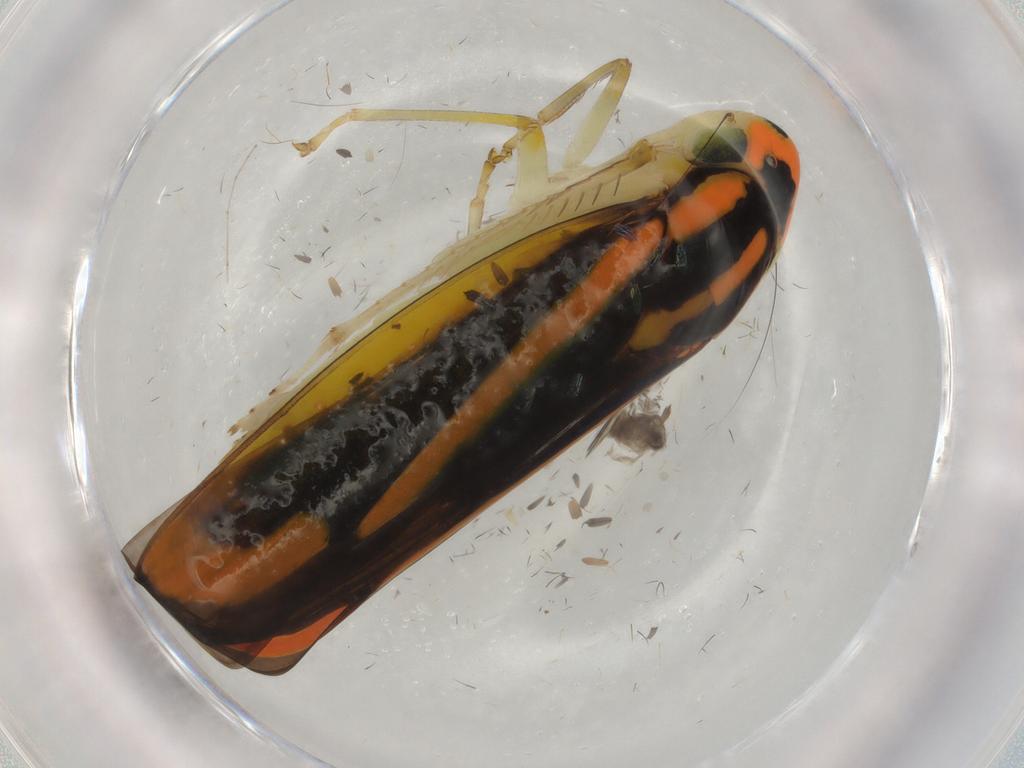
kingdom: Animalia
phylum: Arthropoda
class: Insecta
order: Hemiptera
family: Cicadellidae
